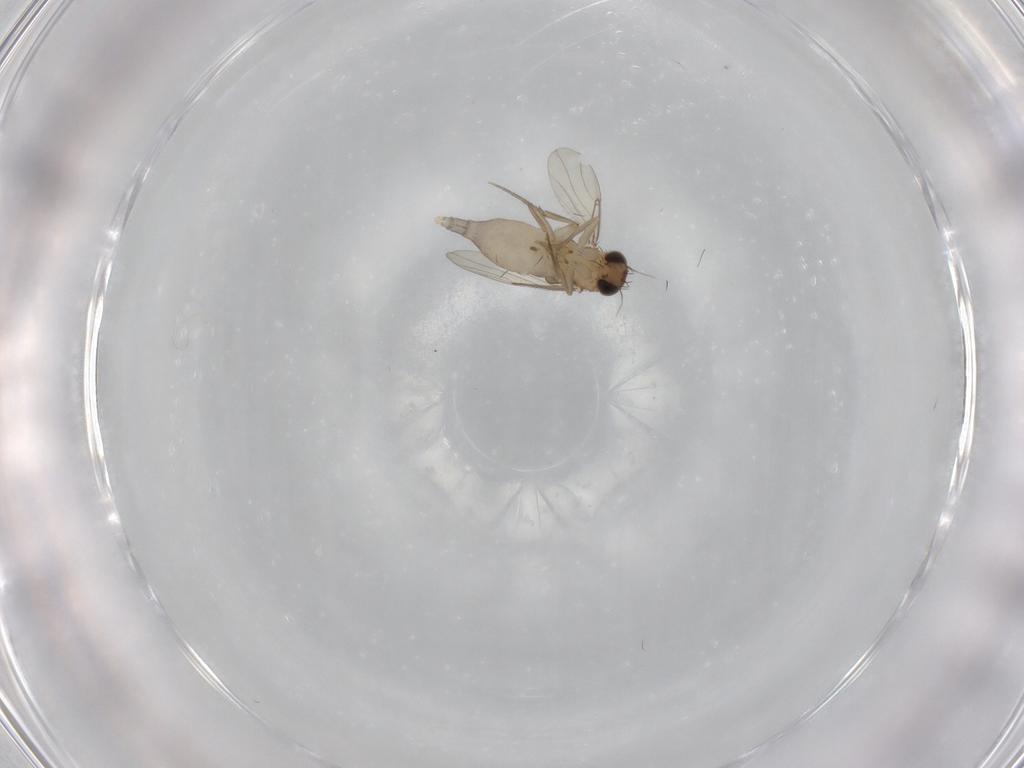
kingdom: Animalia
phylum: Arthropoda
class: Insecta
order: Diptera
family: Phoridae
